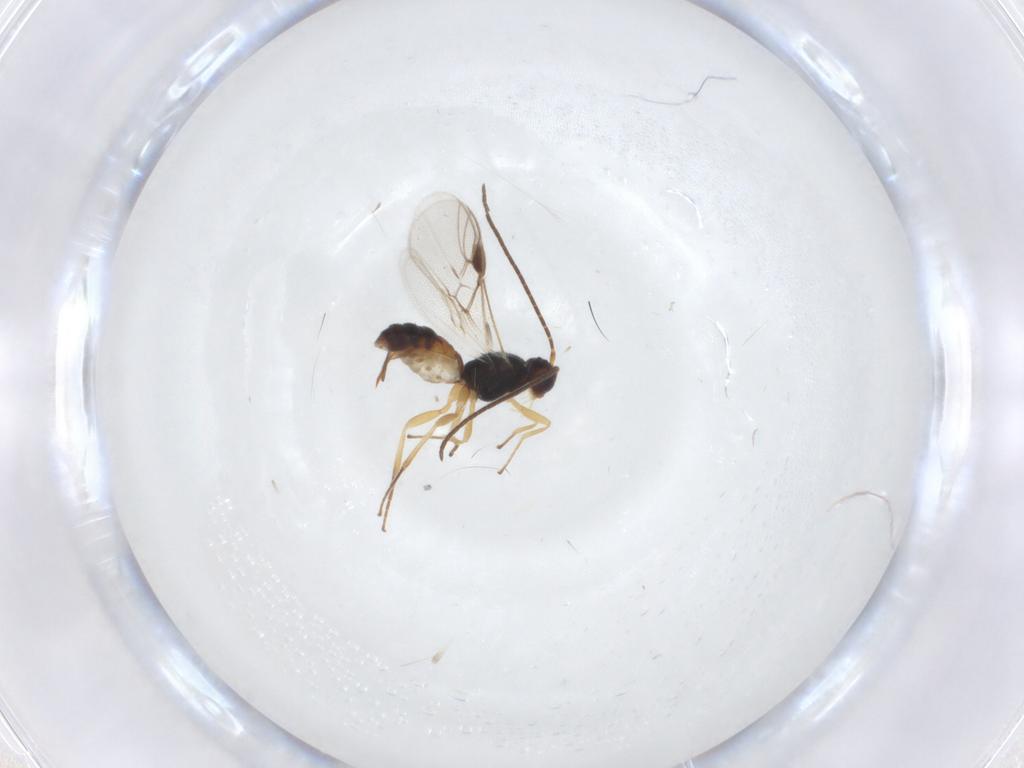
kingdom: Animalia
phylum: Arthropoda
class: Insecta
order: Hymenoptera
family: Braconidae
